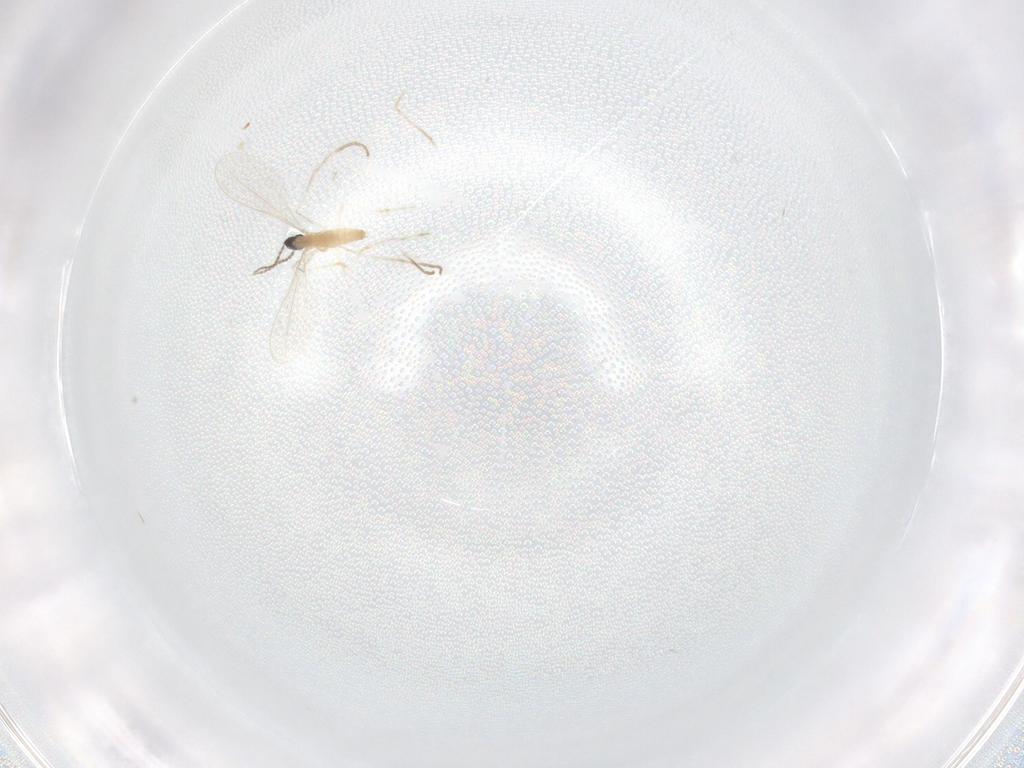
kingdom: Animalia
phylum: Arthropoda
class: Insecta
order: Diptera
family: Cecidomyiidae
